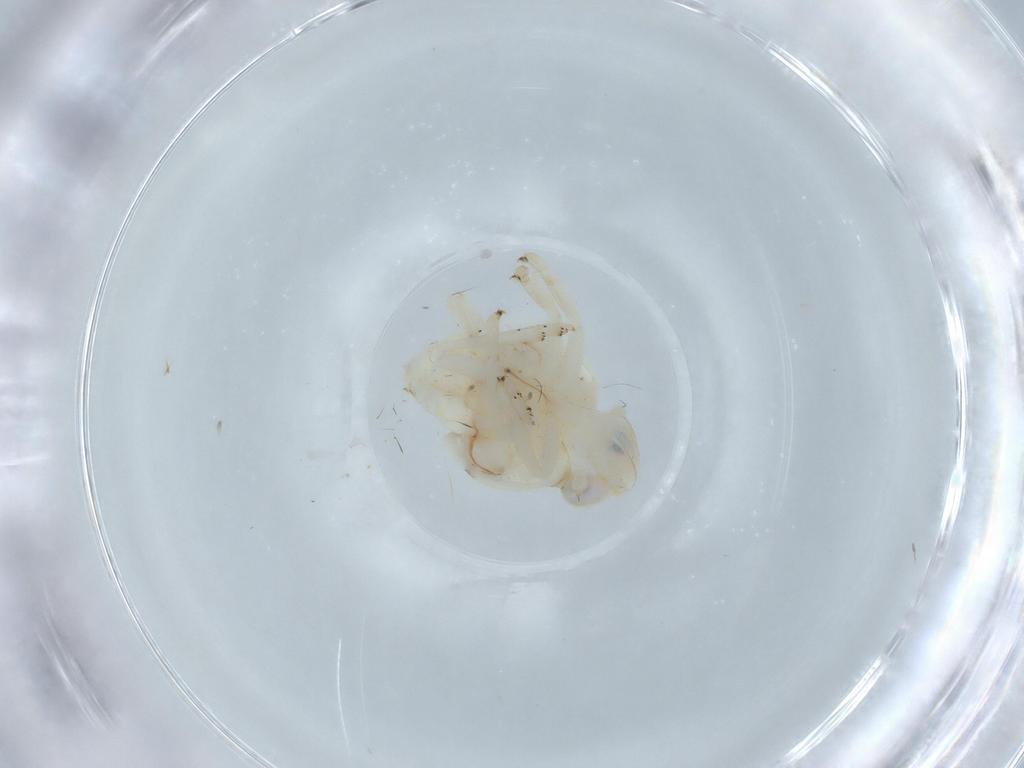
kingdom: Animalia
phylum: Arthropoda
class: Insecta
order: Hemiptera
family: Nogodinidae
